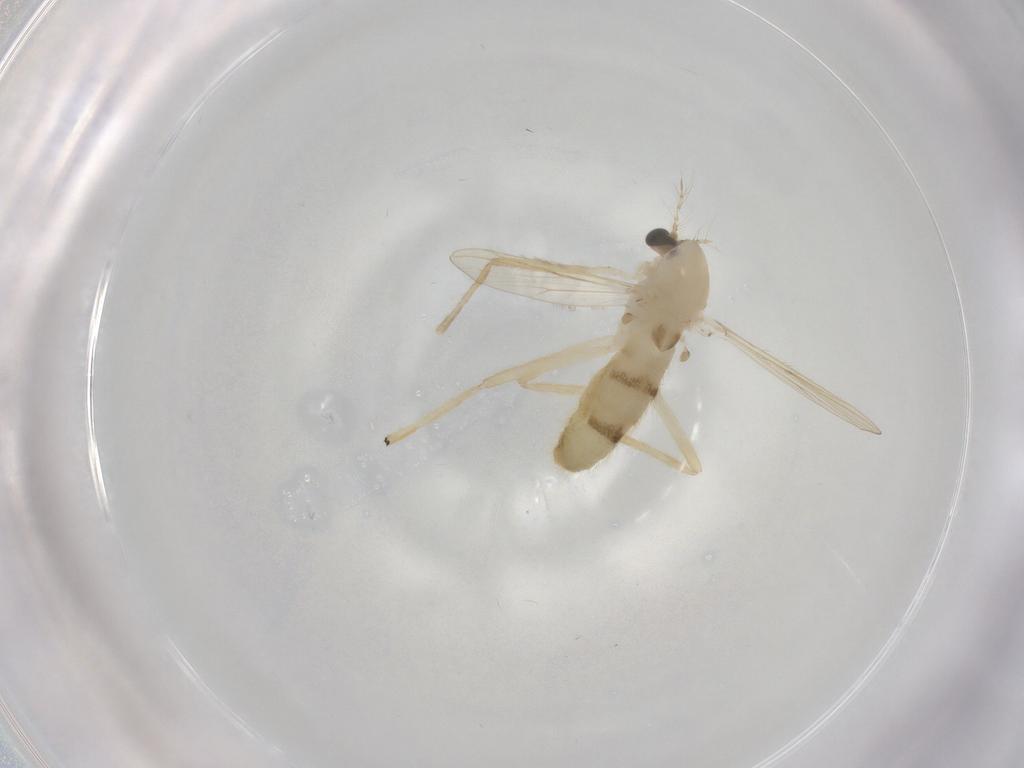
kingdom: Animalia
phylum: Arthropoda
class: Insecta
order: Diptera
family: Chironomidae
